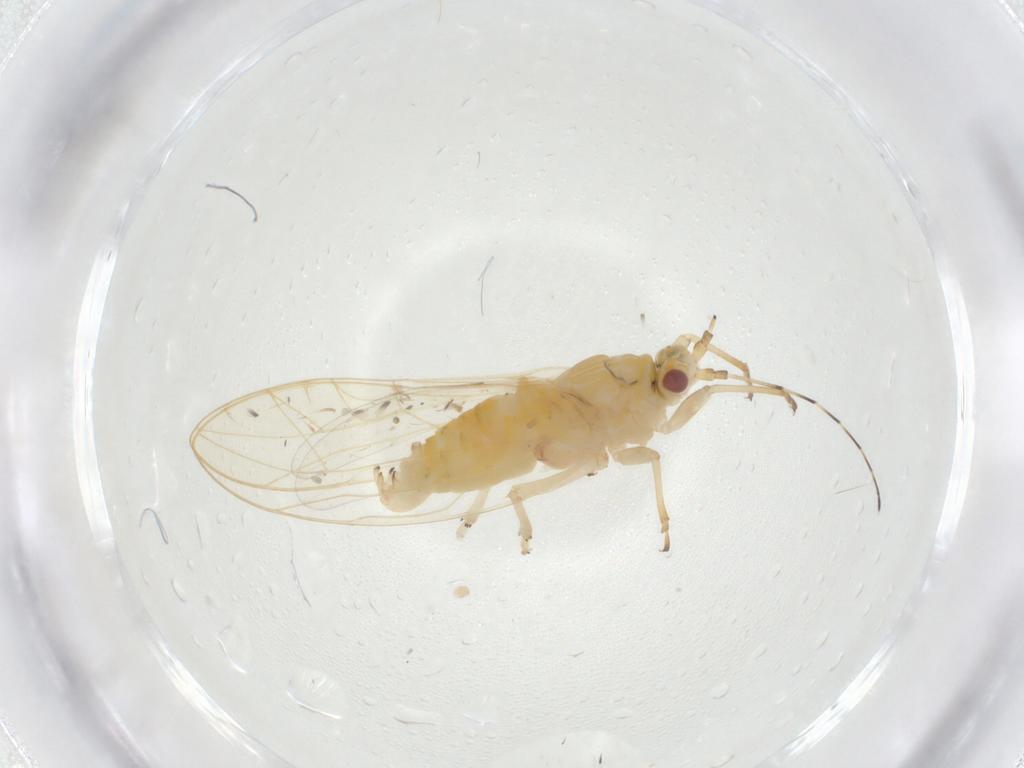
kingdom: Animalia
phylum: Arthropoda
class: Insecta
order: Hemiptera
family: Carsidaridae
